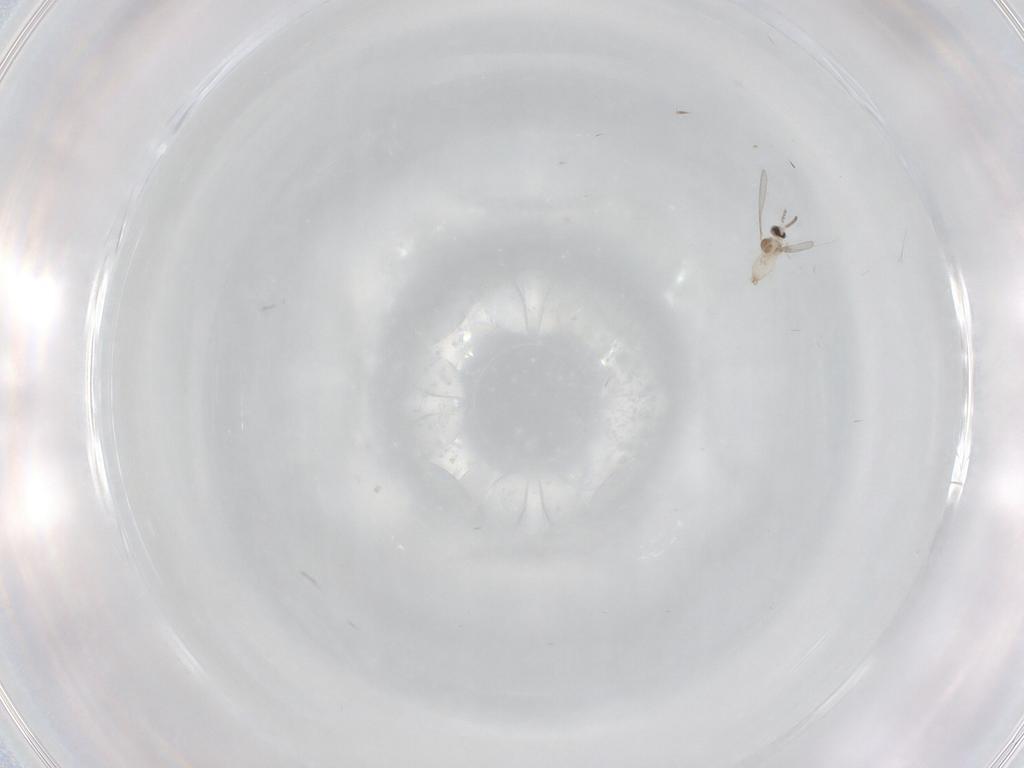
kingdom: Animalia
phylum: Arthropoda
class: Insecta
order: Diptera
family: Cecidomyiidae
